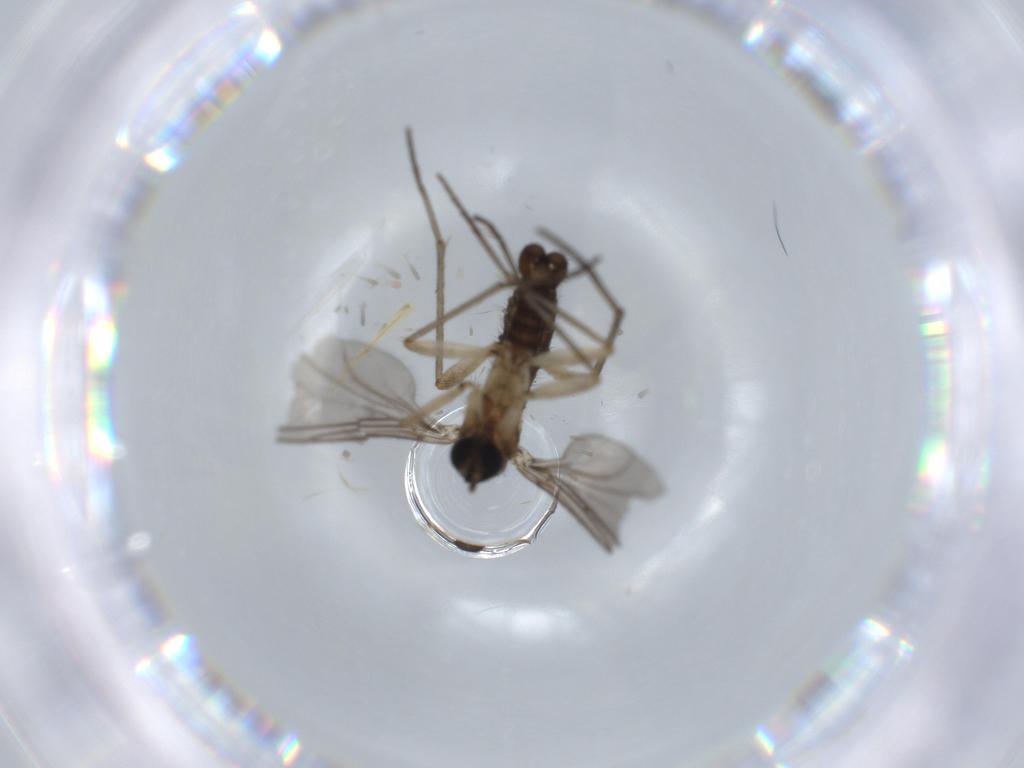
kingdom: Animalia
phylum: Arthropoda
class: Insecta
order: Diptera
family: Sciaridae
